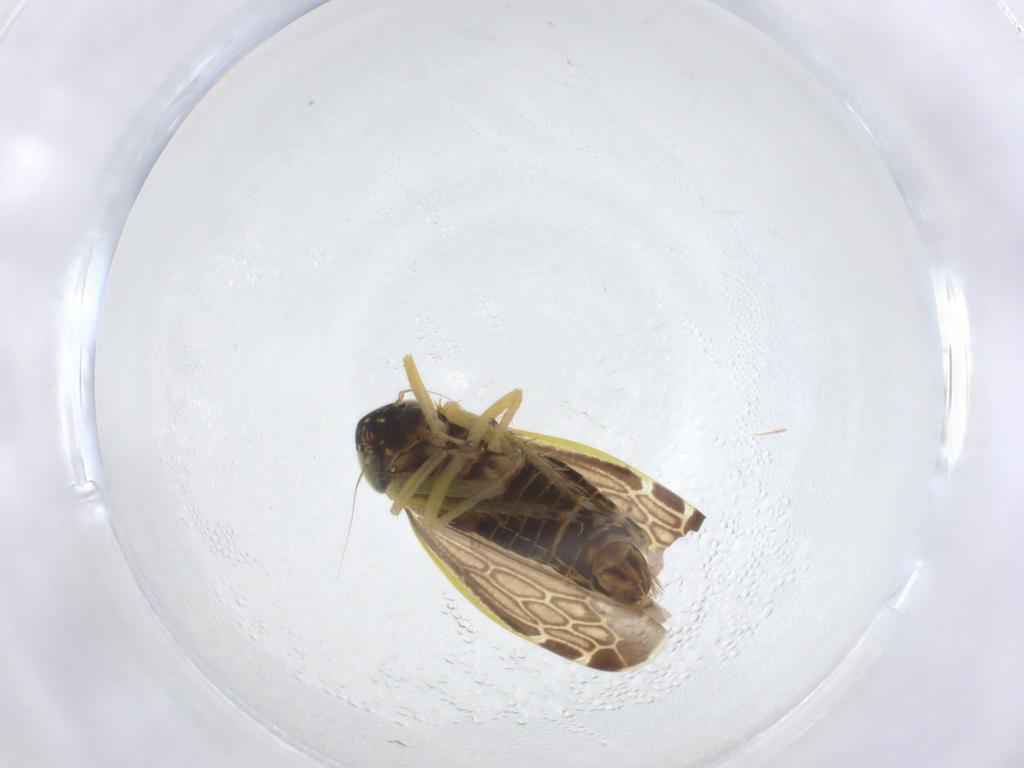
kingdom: Animalia
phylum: Arthropoda
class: Insecta
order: Hemiptera
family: Cicadellidae
